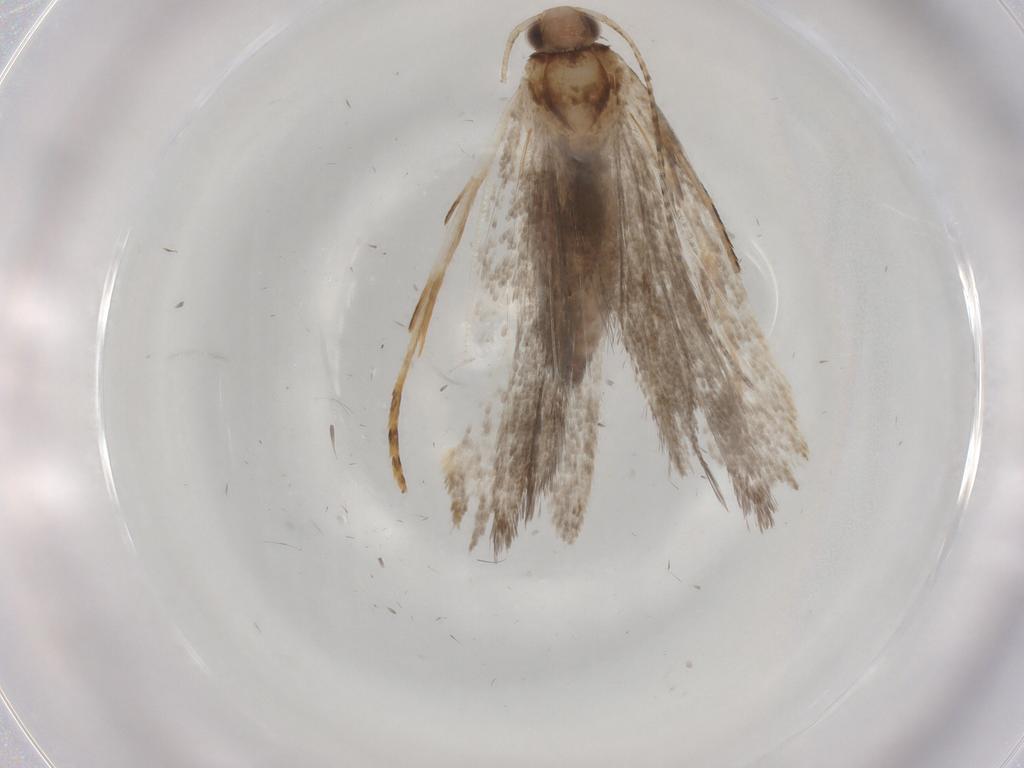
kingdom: Animalia
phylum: Arthropoda
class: Insecta
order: Lepidoptera
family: Gelechiidae
